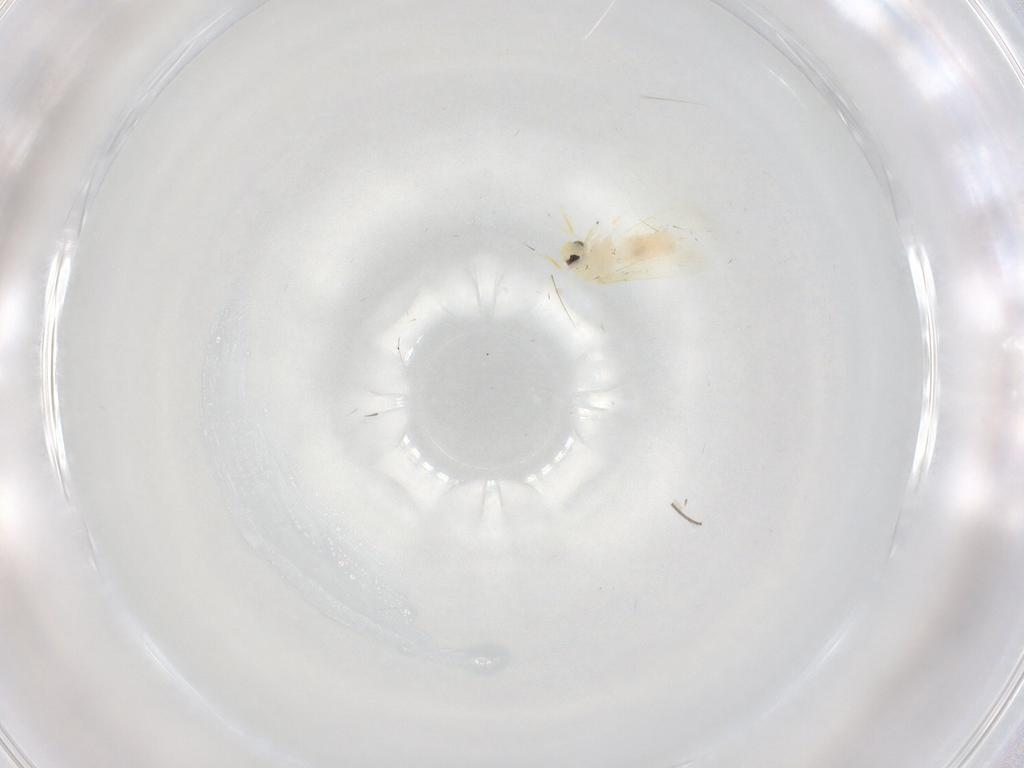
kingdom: Animalia
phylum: Arthropoda
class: Insecta
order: Hemiptera
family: Aleyrodidae
